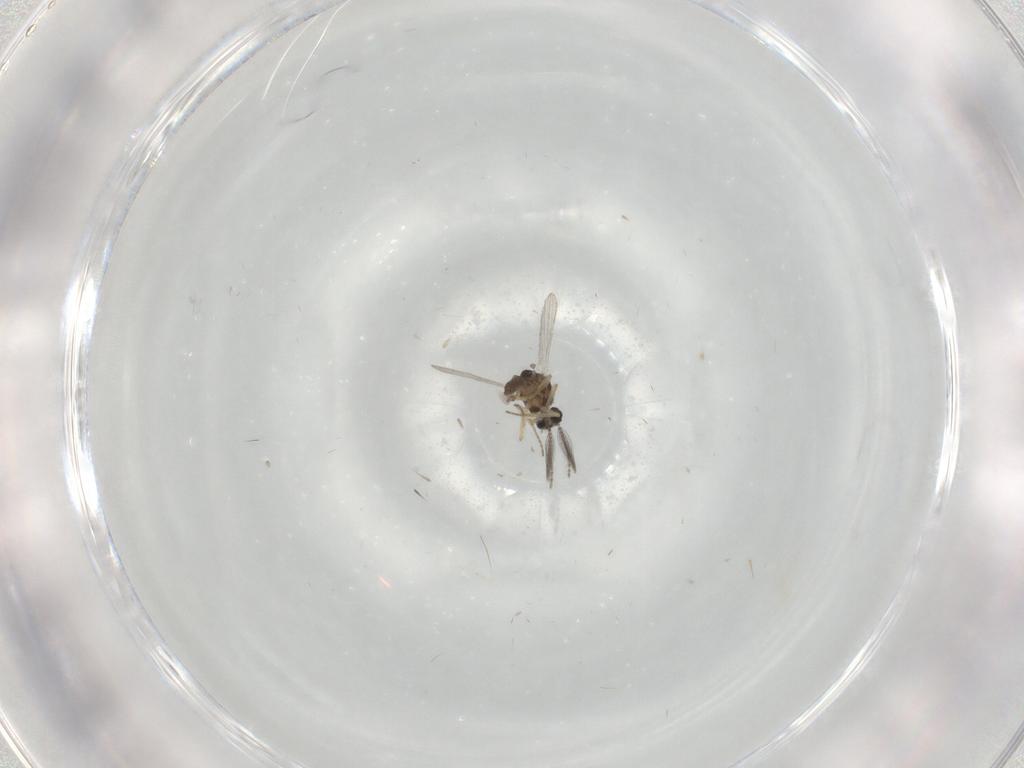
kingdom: Animalia
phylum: Arthropoda
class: Insecta
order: Diptera
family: Ceratopogonidae
